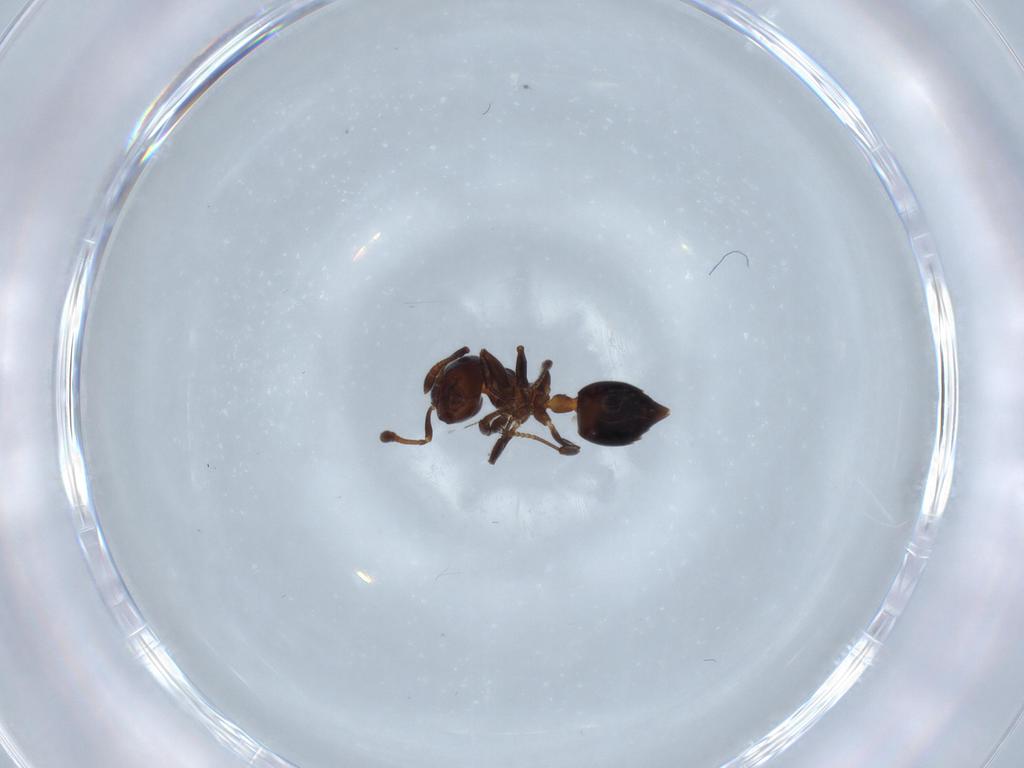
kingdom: Animalia
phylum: Arthropoda
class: Insecta
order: Hymenoptera
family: Formicidae
